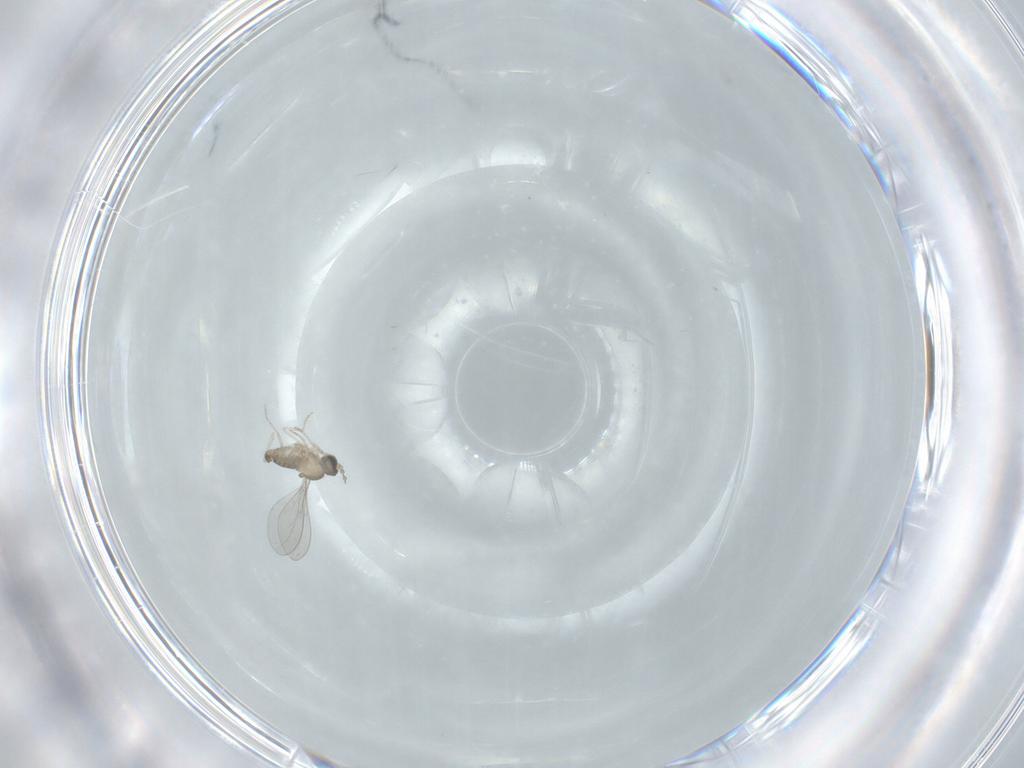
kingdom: Animalia
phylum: Arthropoda
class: Insecta
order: Diptera
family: Cecidomyiidae
